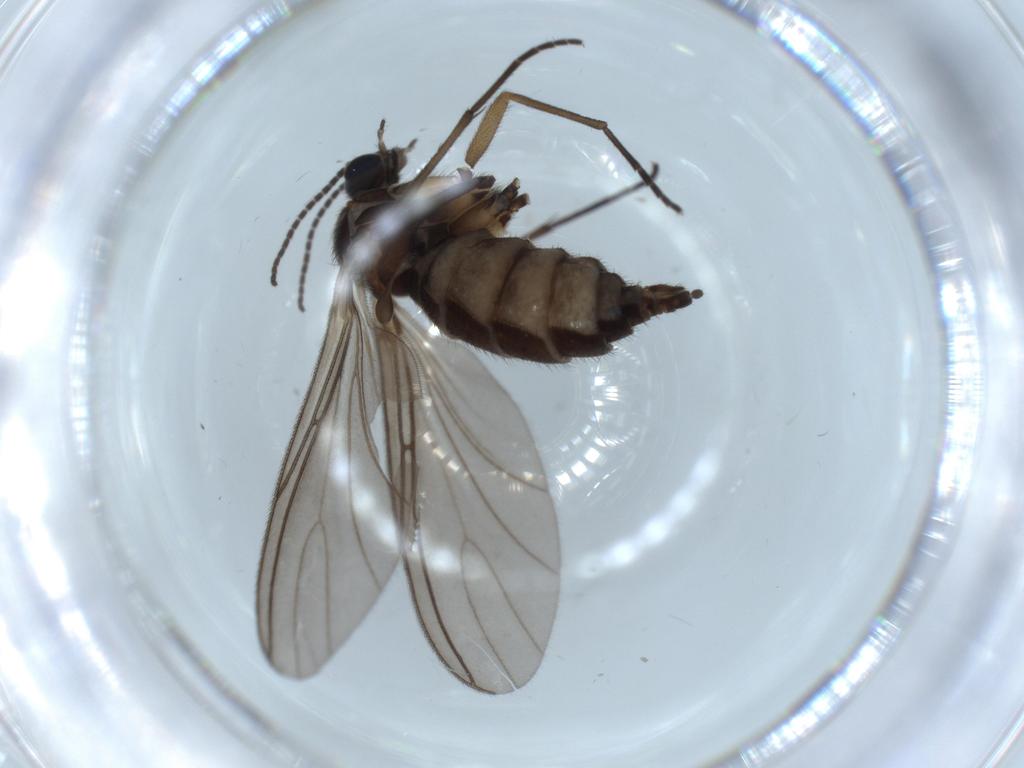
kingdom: Animalia
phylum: Arthropoda
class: Insecta
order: Diptera
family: Sciaridae
